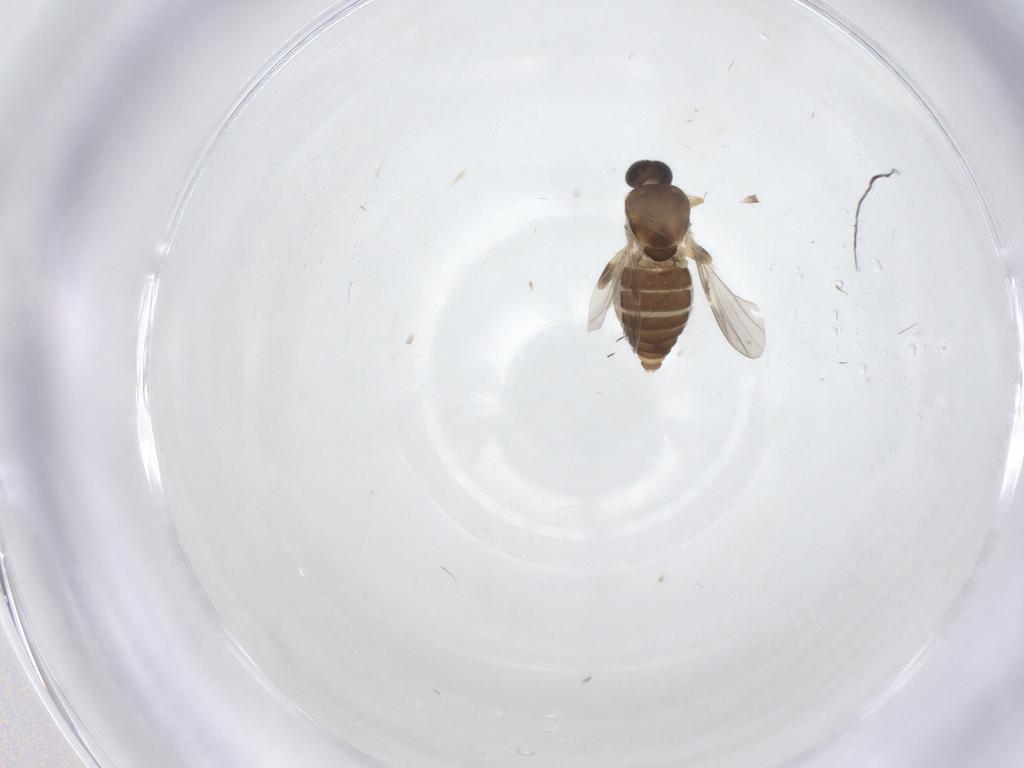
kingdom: Animalia
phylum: Arthropoda
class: Insecta
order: Diptera
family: Ceratopogonidae
